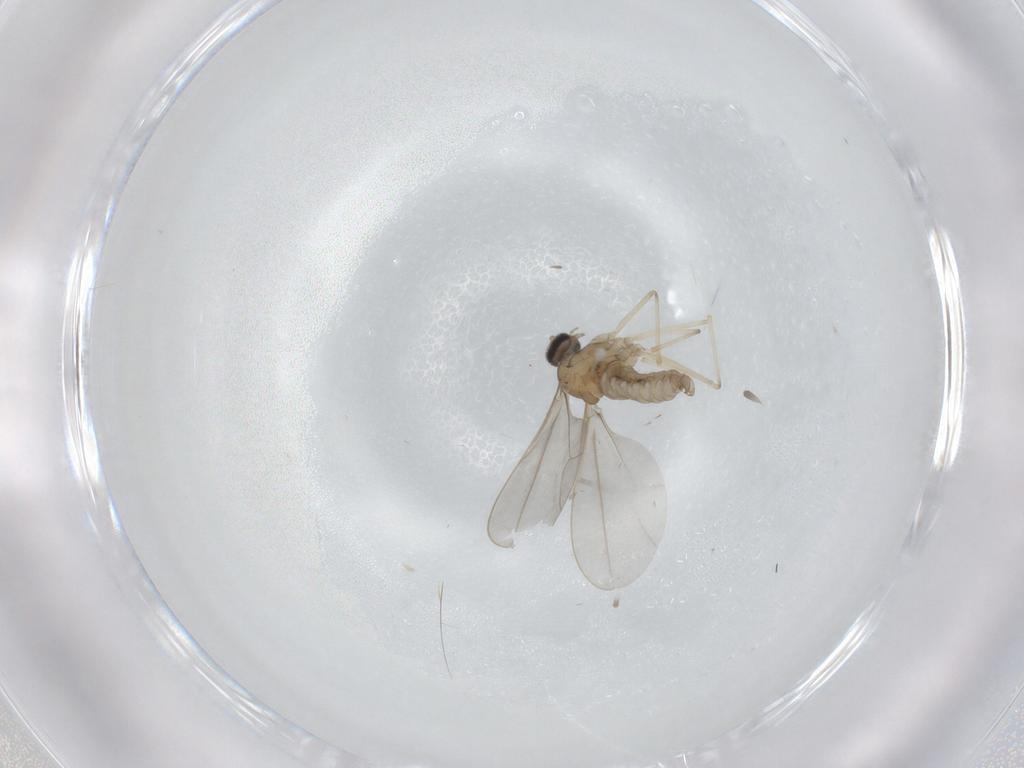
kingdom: Animalia
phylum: Arthropoda
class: Insecta
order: Diptera
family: Cecidomyiidae
